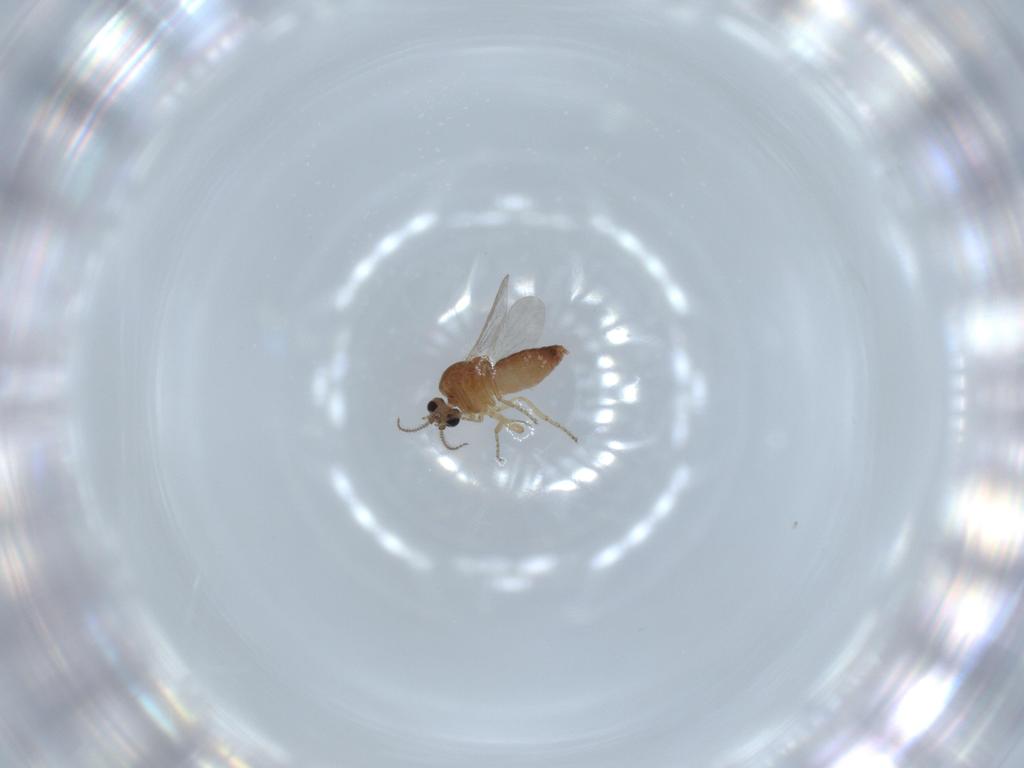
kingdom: Animalia
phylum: Arthropoda
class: Insecta
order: Diptera
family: Ceratopogonidae
